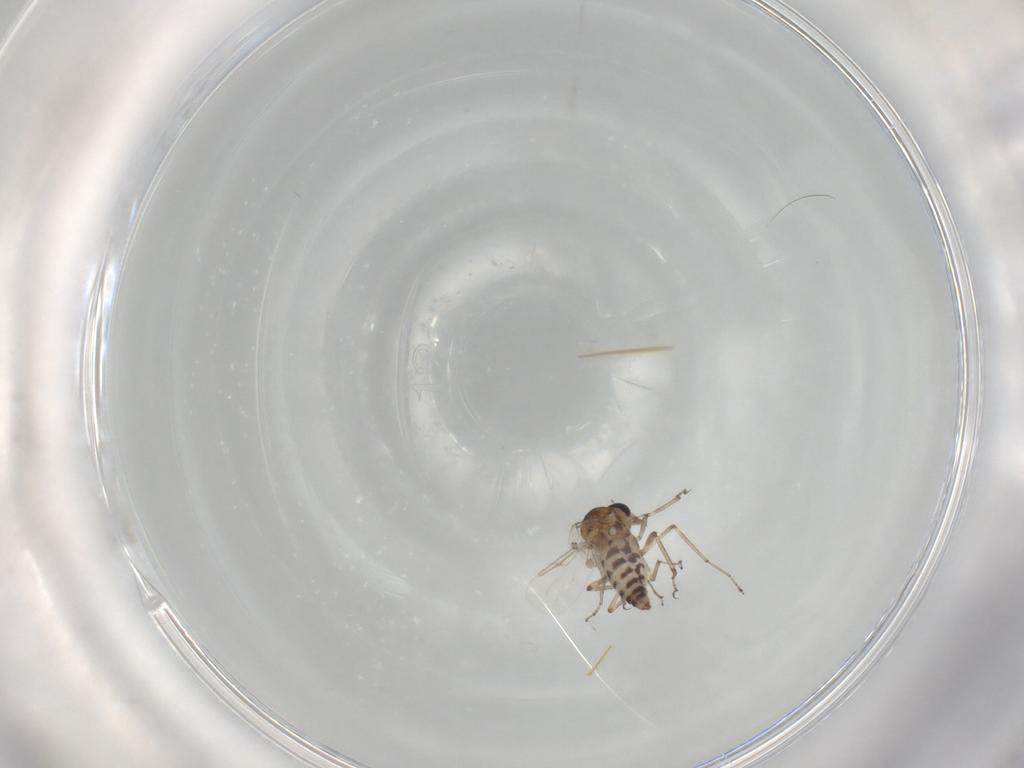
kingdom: Animalia
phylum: Arthropoda
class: Insecta
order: Diptera
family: Ceratopogonidae
